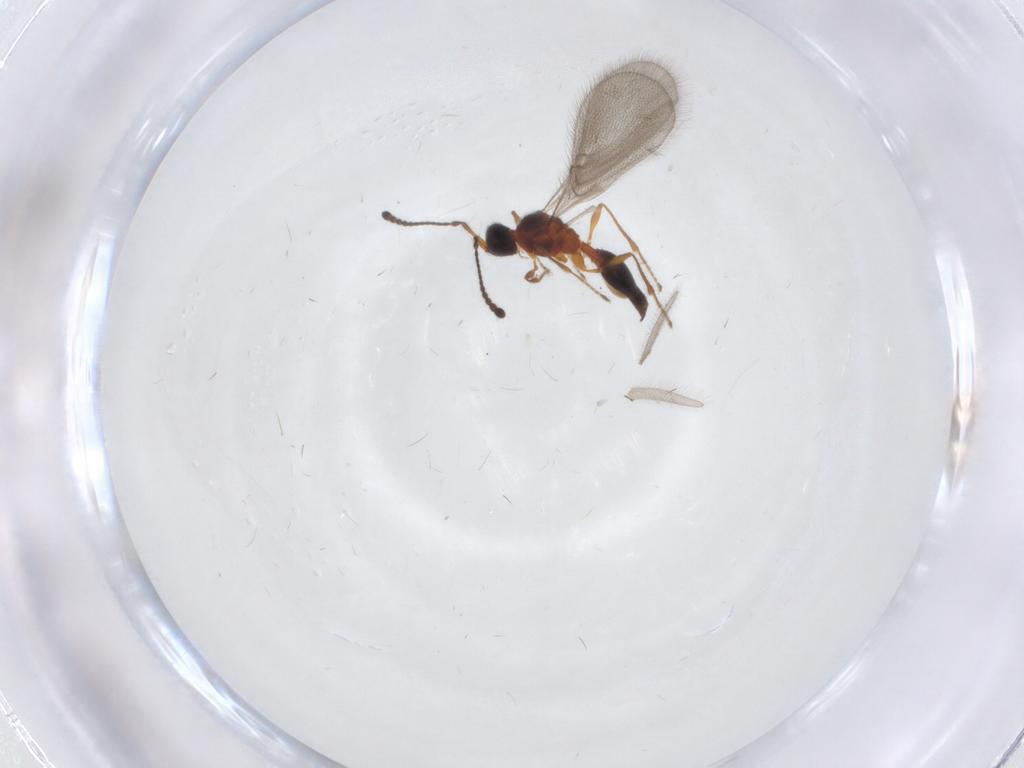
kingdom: Animalia
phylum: Arthropoda
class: Insecta
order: Hymenoptera
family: Diapriidae
